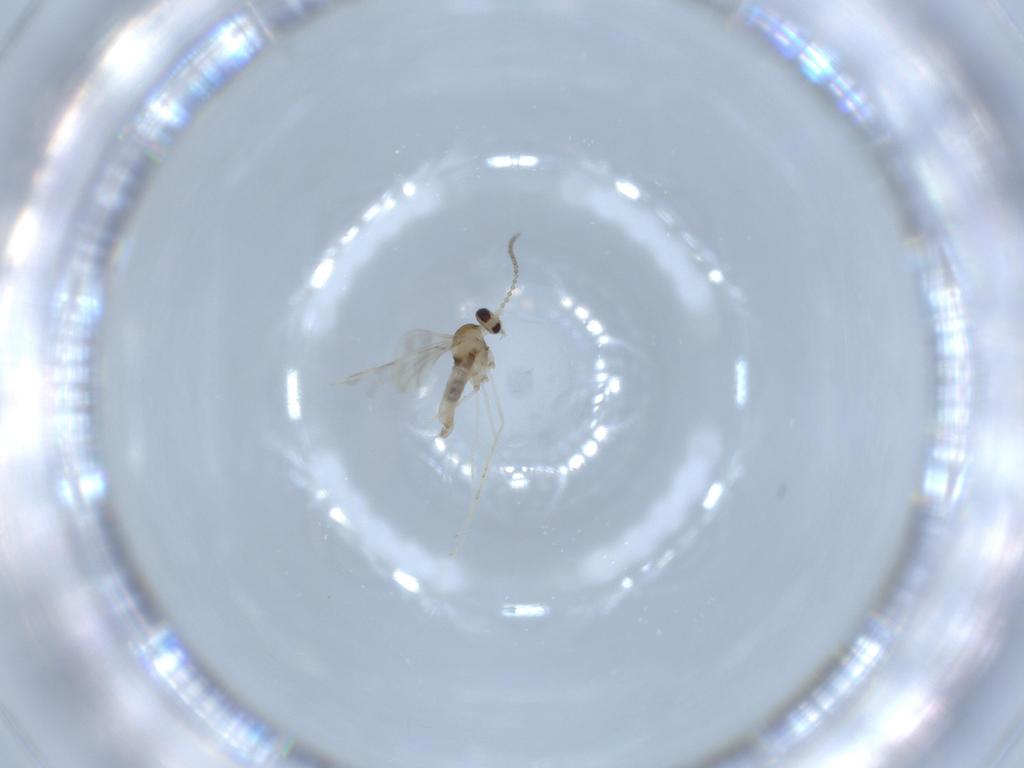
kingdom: Animalia
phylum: Arthropoda
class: Insecta
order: Diptera
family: Cecidomyiidae
